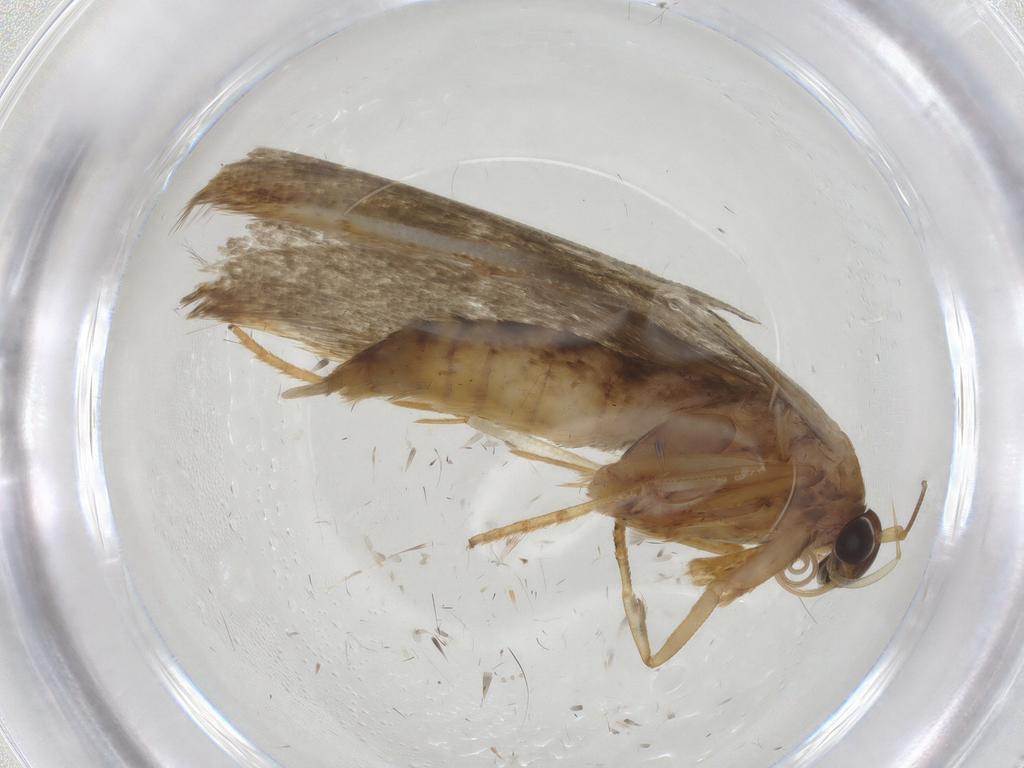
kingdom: Animalia
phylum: Arthropoda
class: Insecta
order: Lepidoptera
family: Blastobasidae
